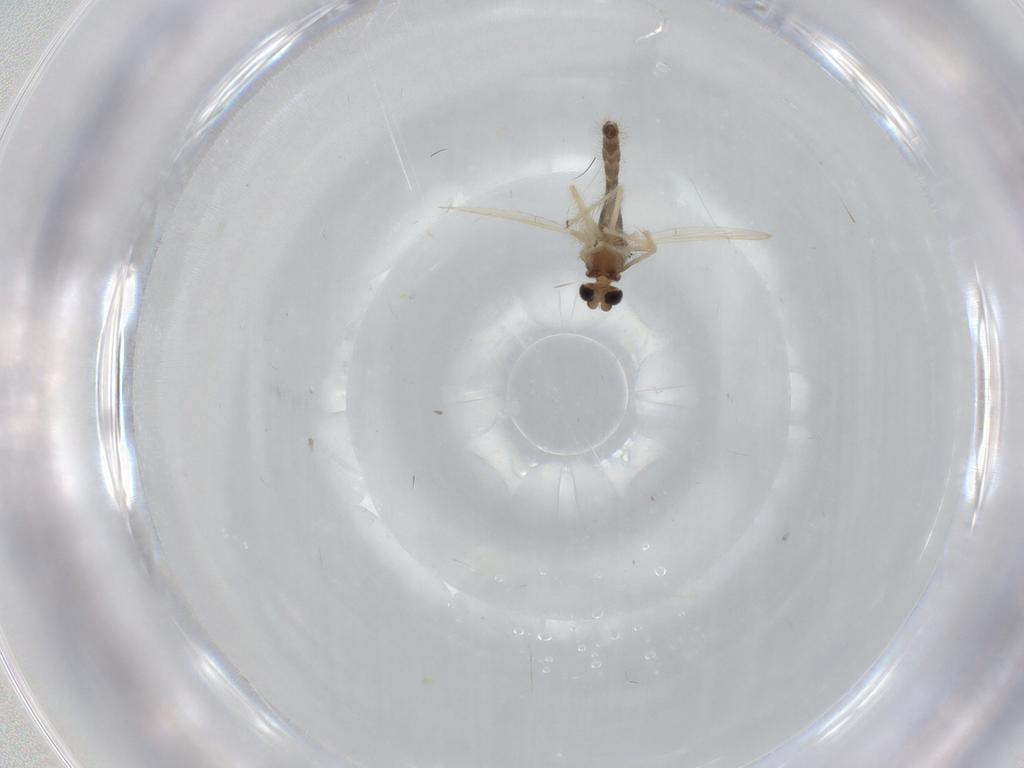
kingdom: Animalia
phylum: Arthropoda
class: Insecta
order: Diptera
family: Chironomidae
